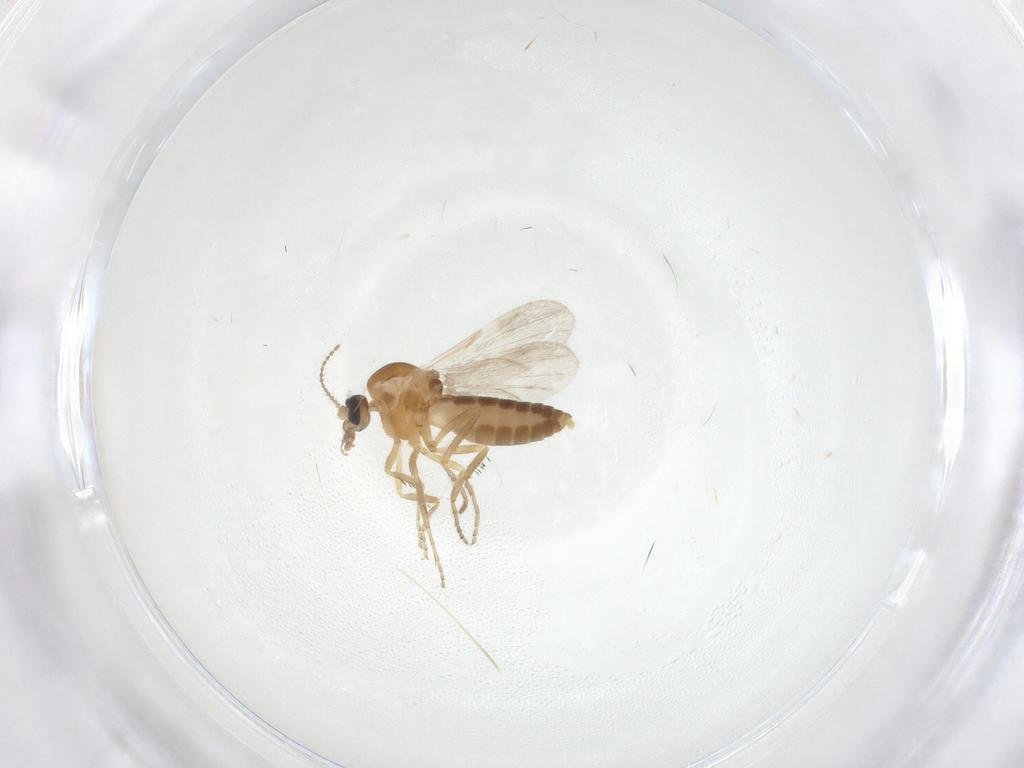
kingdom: Animalia
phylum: Arthropoda
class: Insecta
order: Diptera
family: Ceratopogonidae
